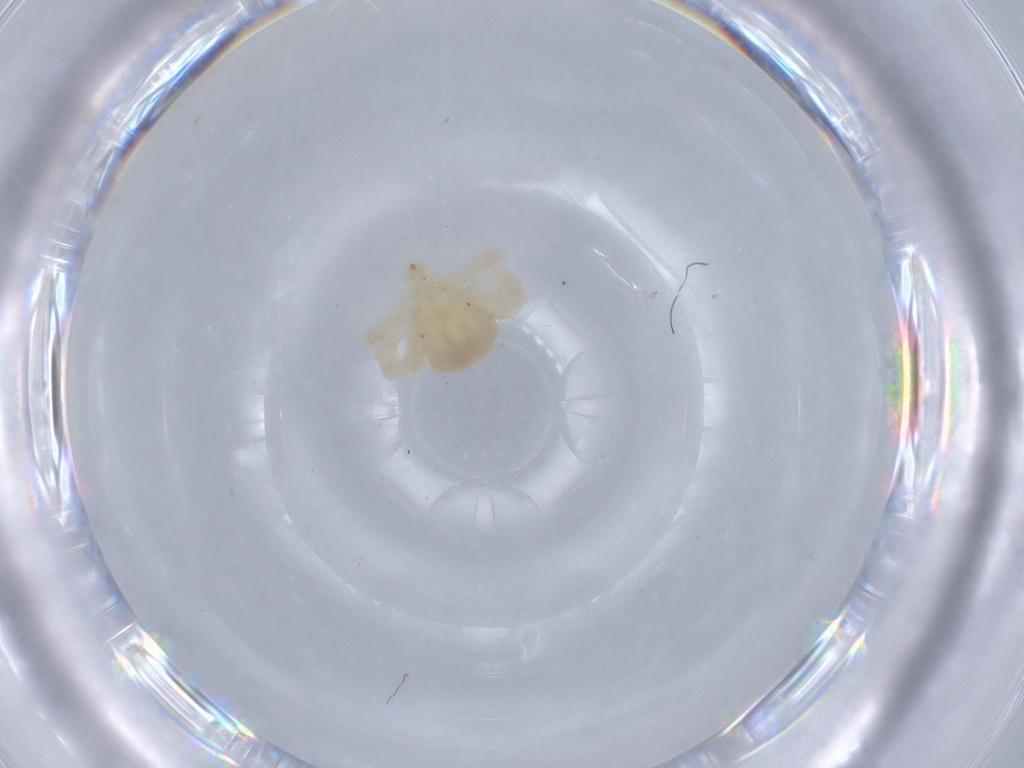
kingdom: Animalia
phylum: Arthropoda
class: Arachnida
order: Trombidiformes
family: Anystidae
